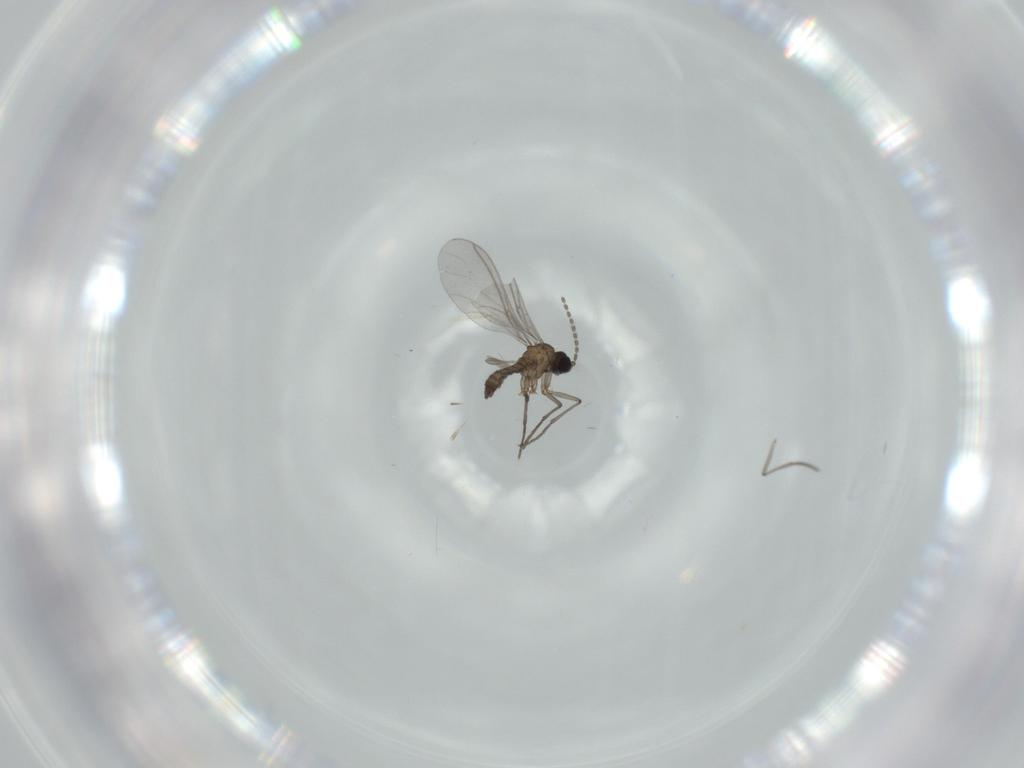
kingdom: Animalia
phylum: Arthropoda
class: Insecta
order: Diptera
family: Sciaridae
